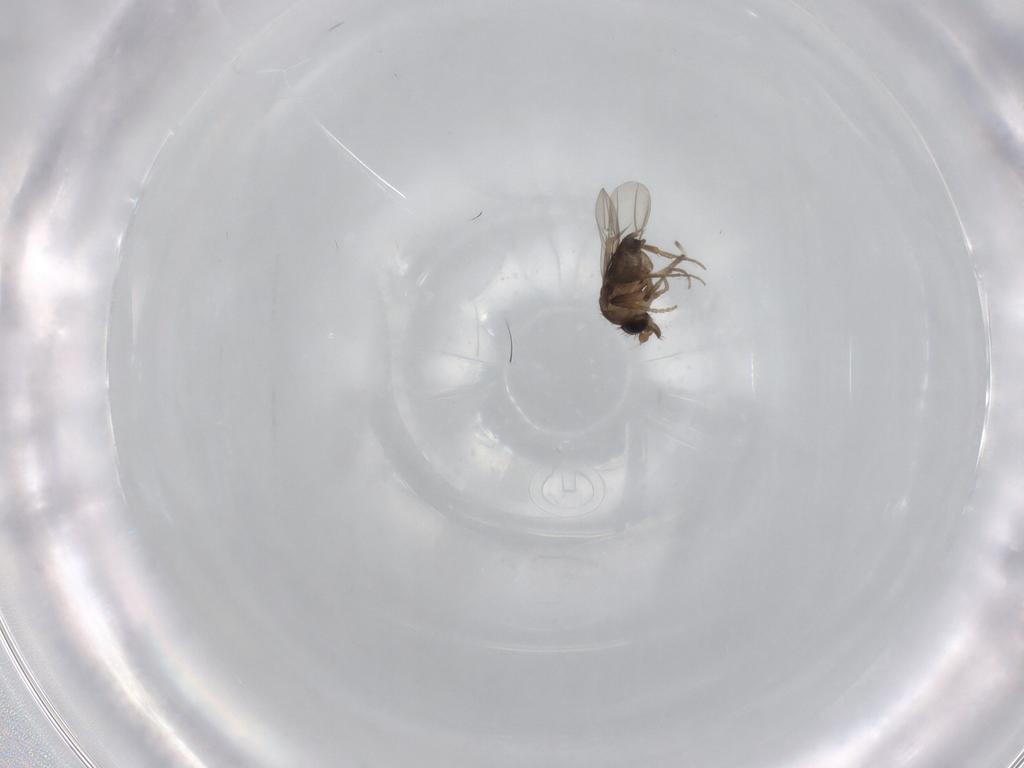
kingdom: Animalia
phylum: Arthropoda
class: Insecta
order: Diptera
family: Phoridae
